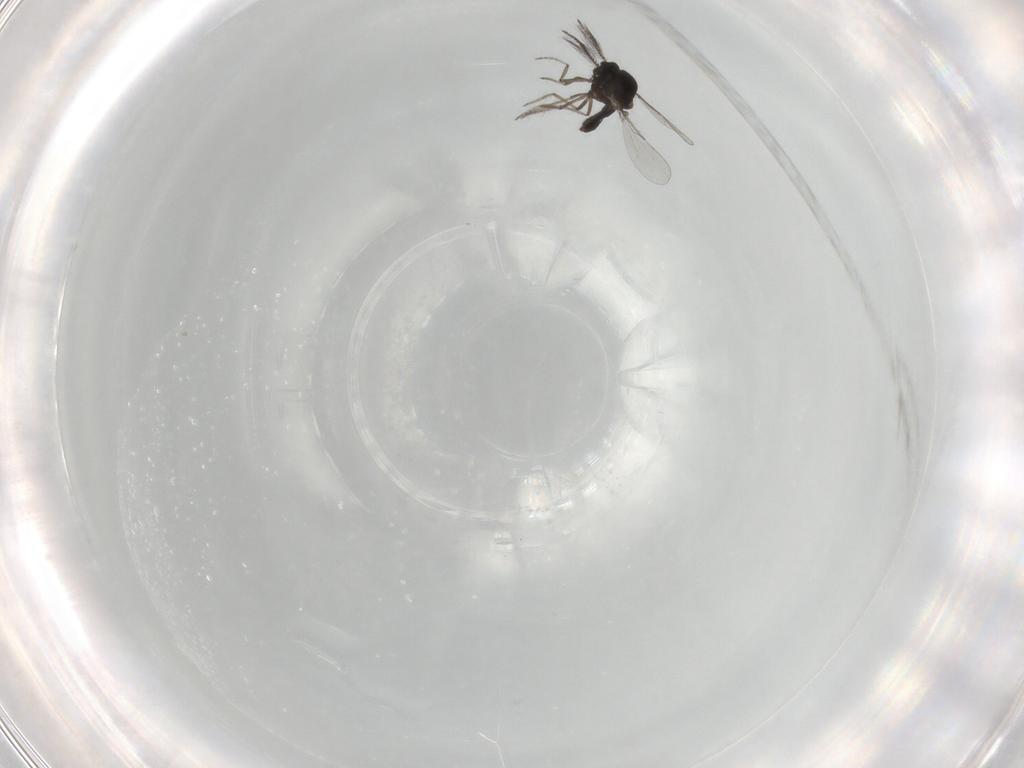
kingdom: Animalia
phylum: Arthropoda
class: Insecta
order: Diptera
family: Ceratopogonidae
